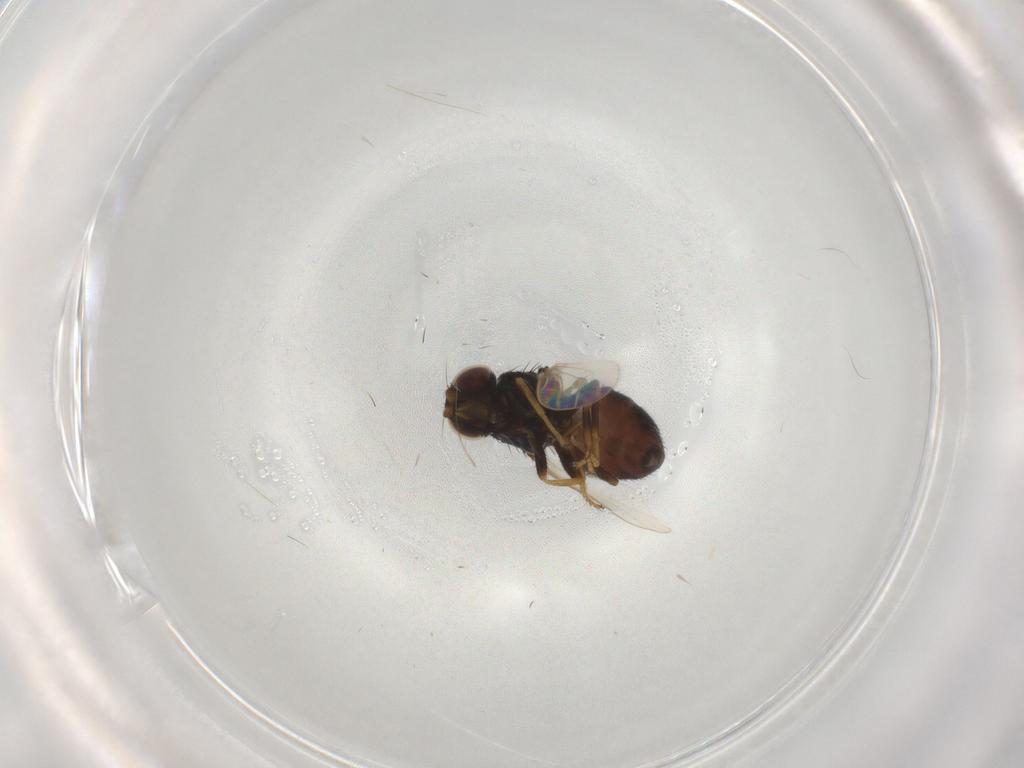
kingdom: Animalia
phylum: Arthropoda
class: Insecta
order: Diptera
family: Chloropidae
